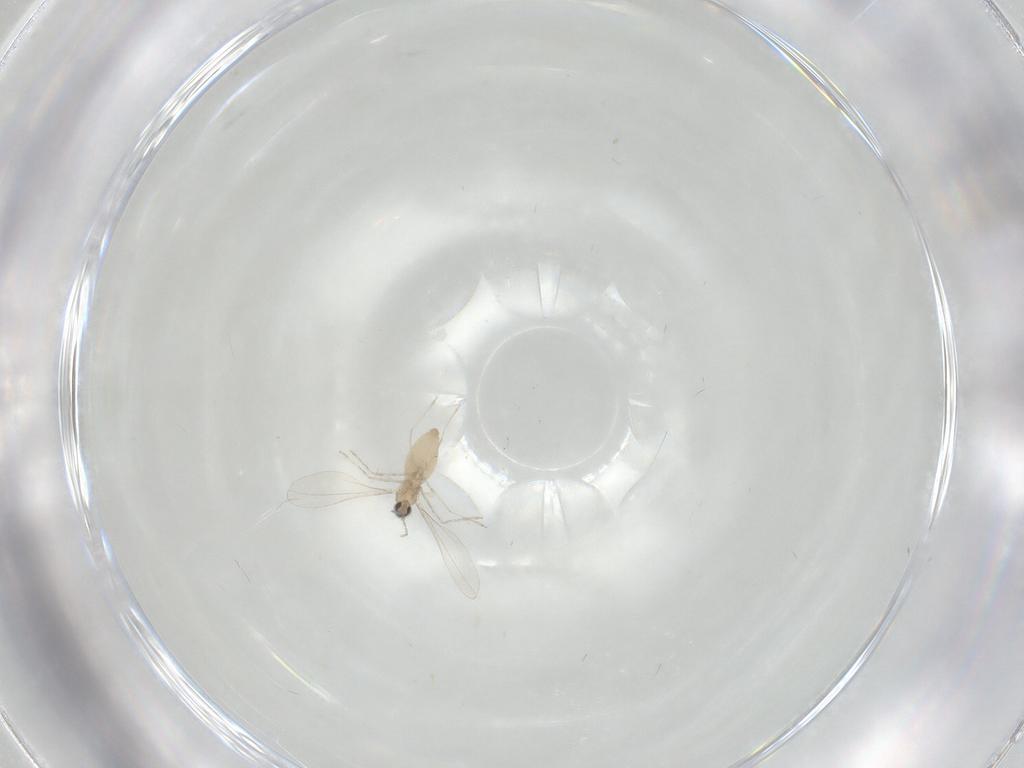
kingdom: Animalia
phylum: Arthropoda
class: Insecta
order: Diptera
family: Cecidomyiidae
